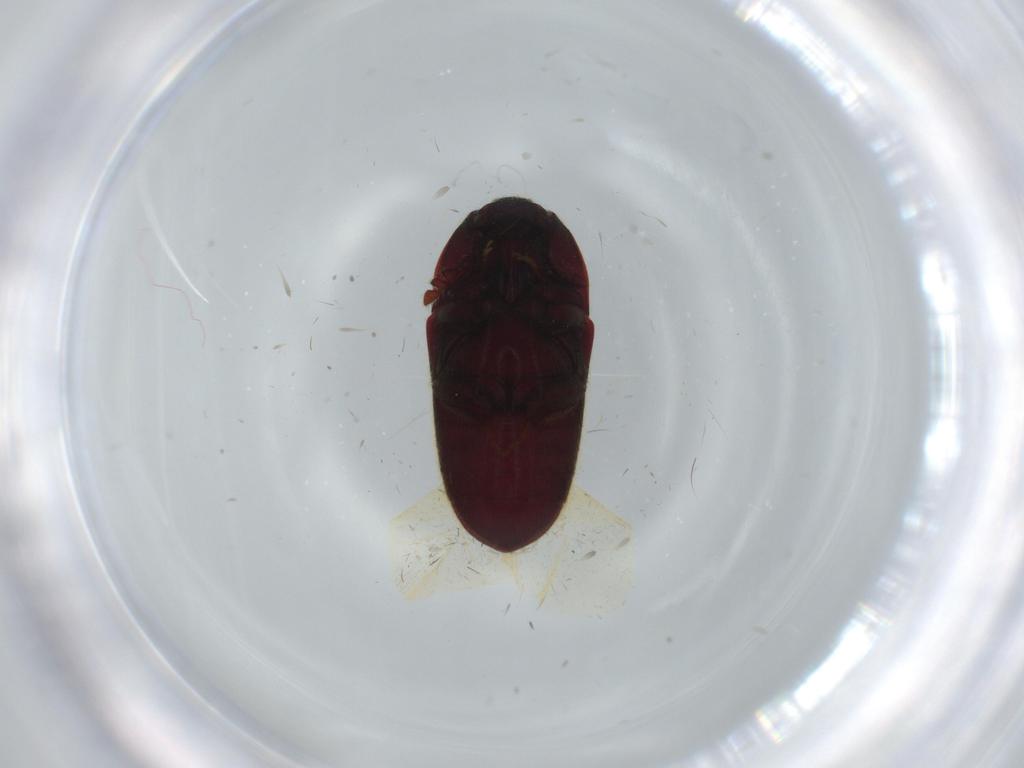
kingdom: Animalia
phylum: Arthropoda
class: Insecta
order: Coleoptera
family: Throscidae
